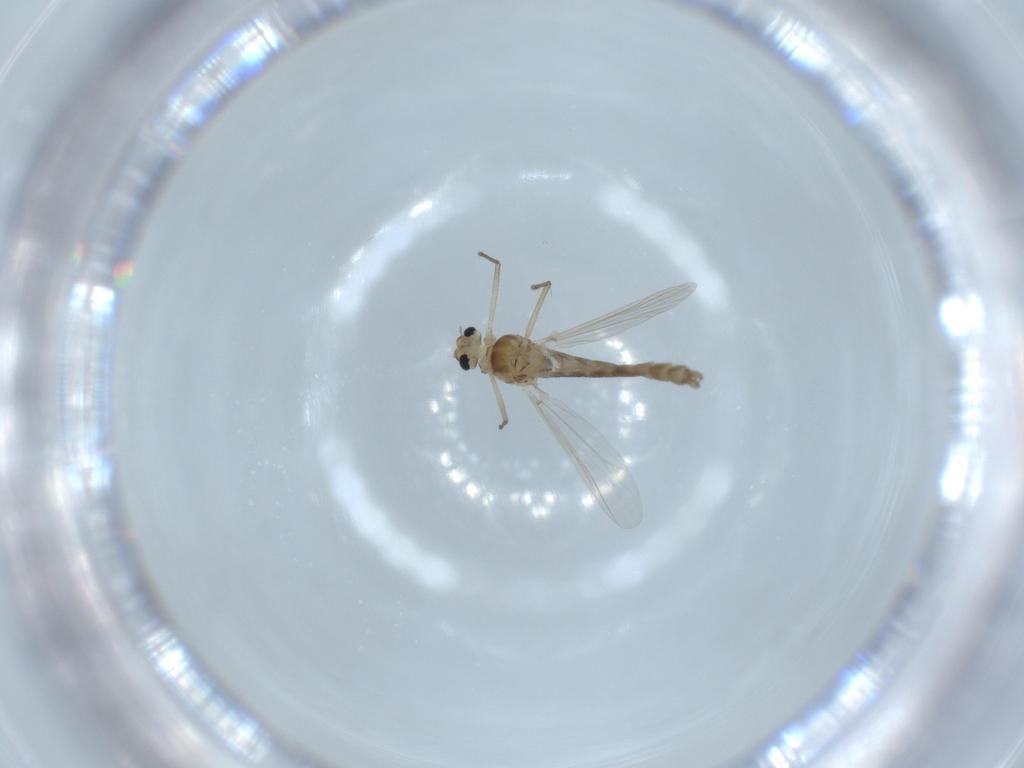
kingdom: Animalia
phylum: Arthropoda
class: Insecta
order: Diptera
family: Chironomidae
